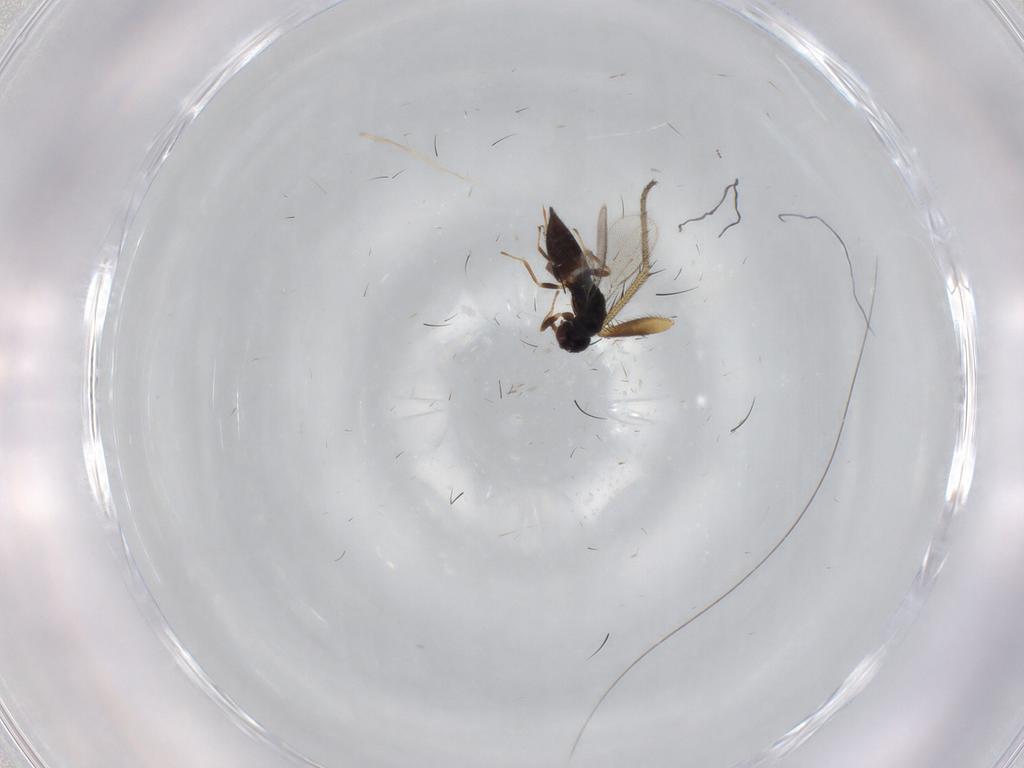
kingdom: Animalia
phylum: Arthropoda
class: Insecta
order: Hymenoptera
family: Eulophidae
